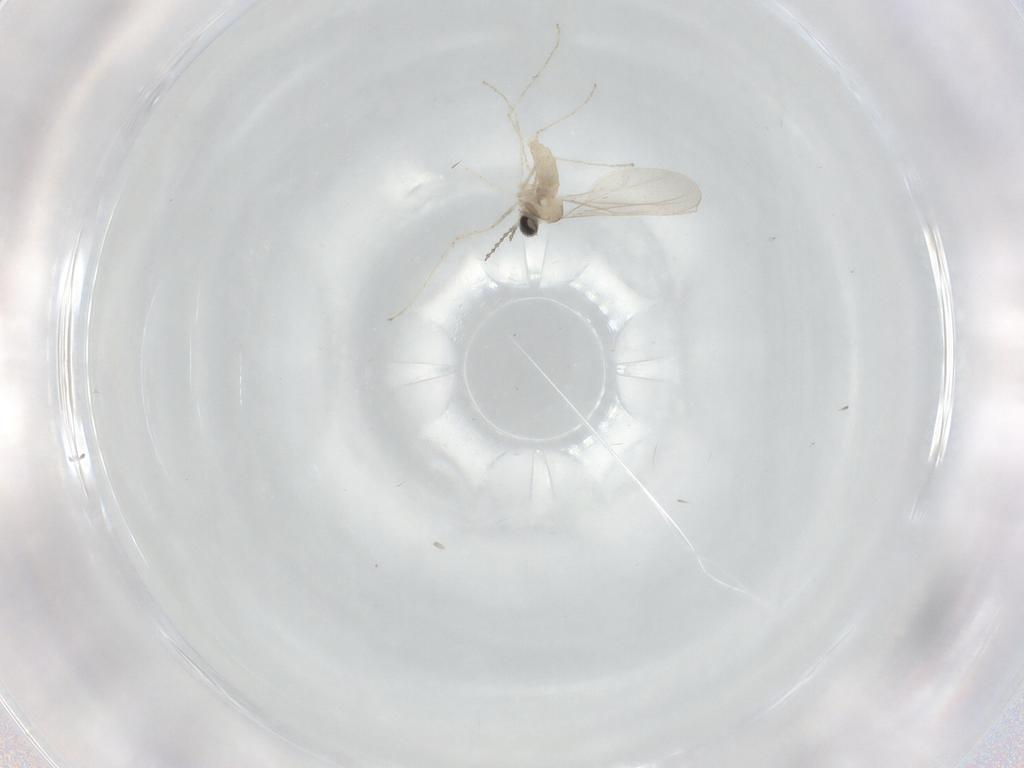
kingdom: Animalia
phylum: Arthropoda
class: Insecta
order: Diptera
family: Cecidomyiidae
